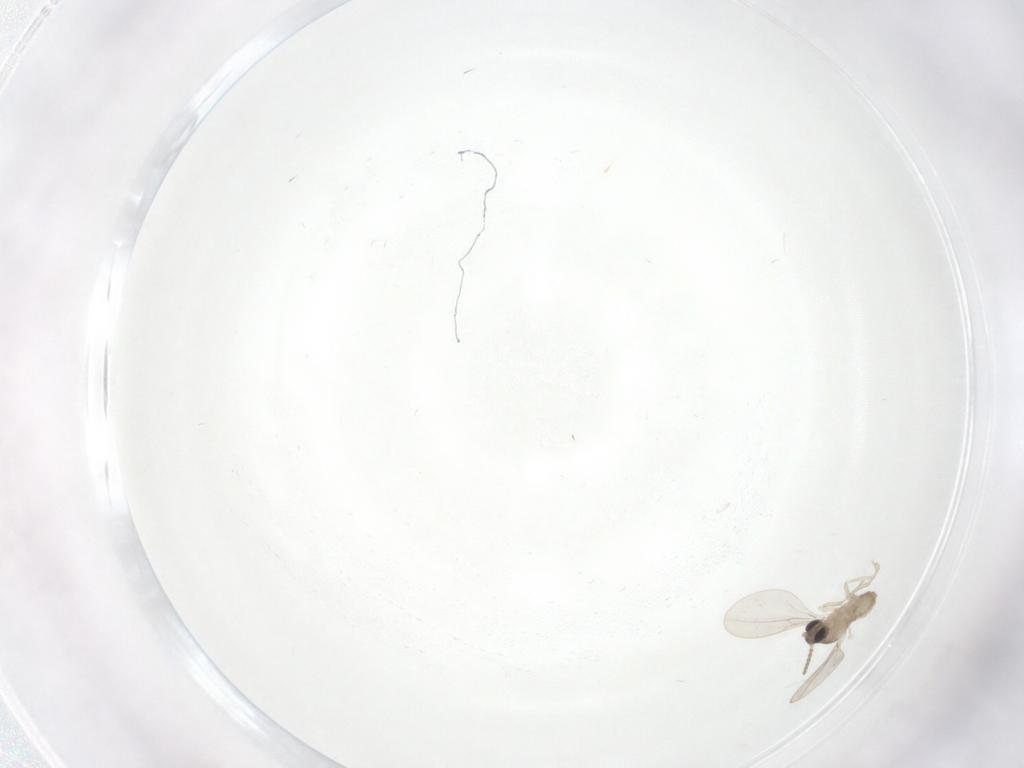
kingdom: Animalia
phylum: Arthropoda
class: Insecta
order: Diptera
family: Cecidomyiidae
